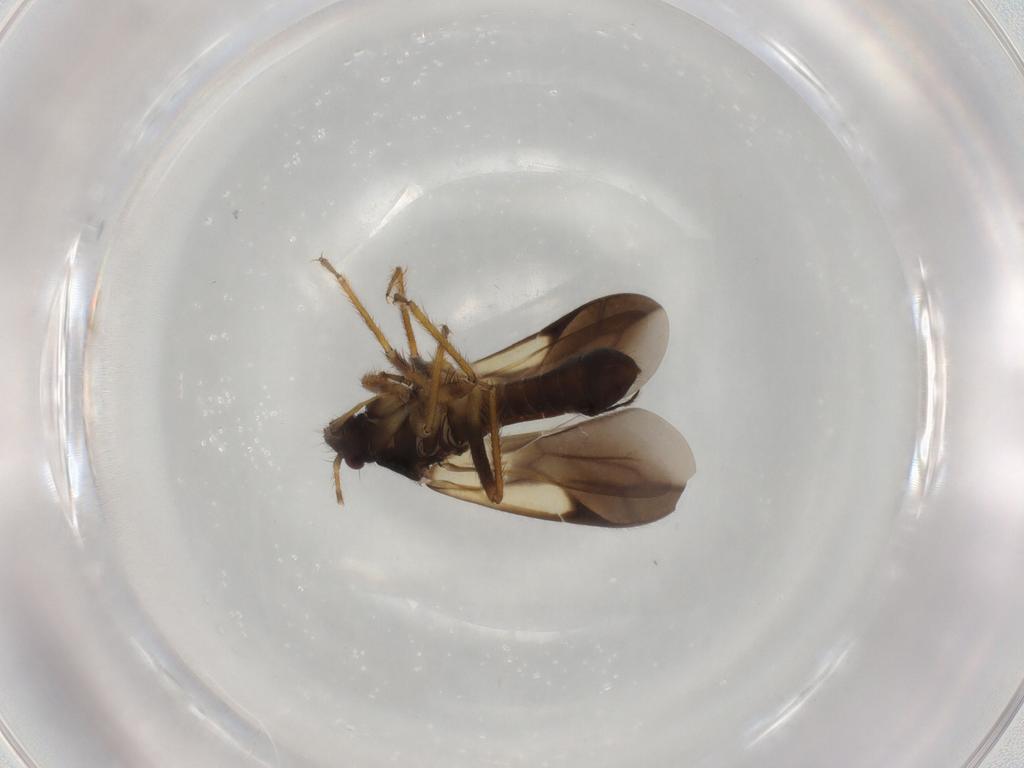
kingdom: Animalia
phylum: Arthropoda
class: Insecta
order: Hemiptera
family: Ceratocombidae
